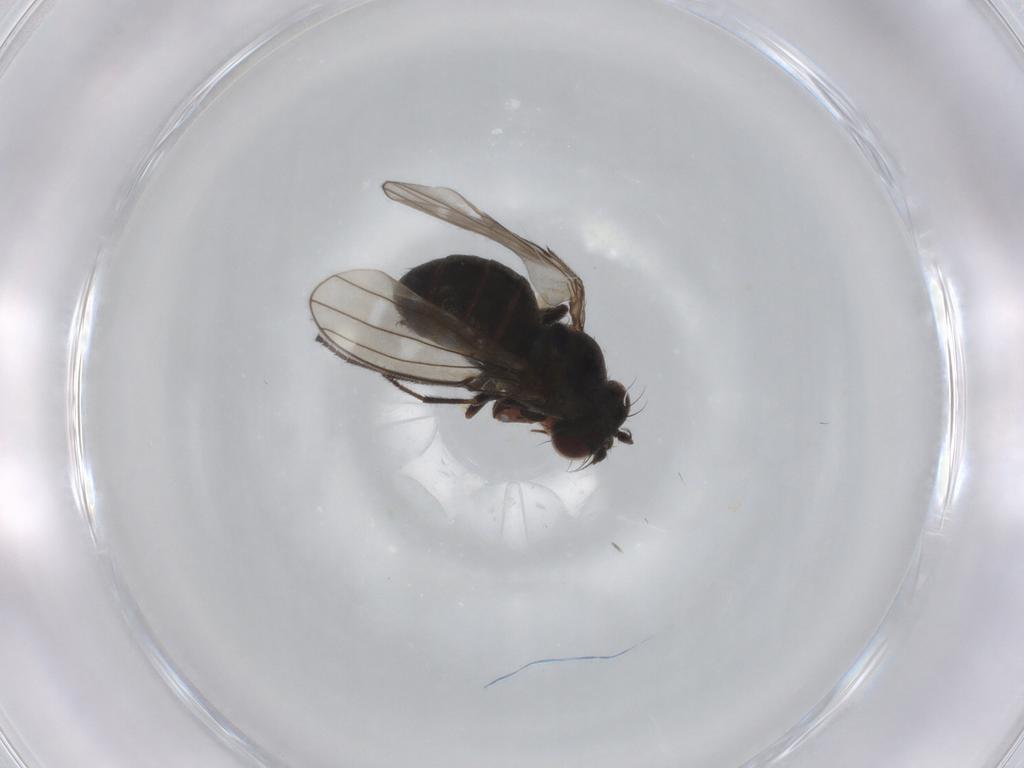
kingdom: Animalia
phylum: Arthropoda
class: Insecta
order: Diptera
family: Ephydridae
